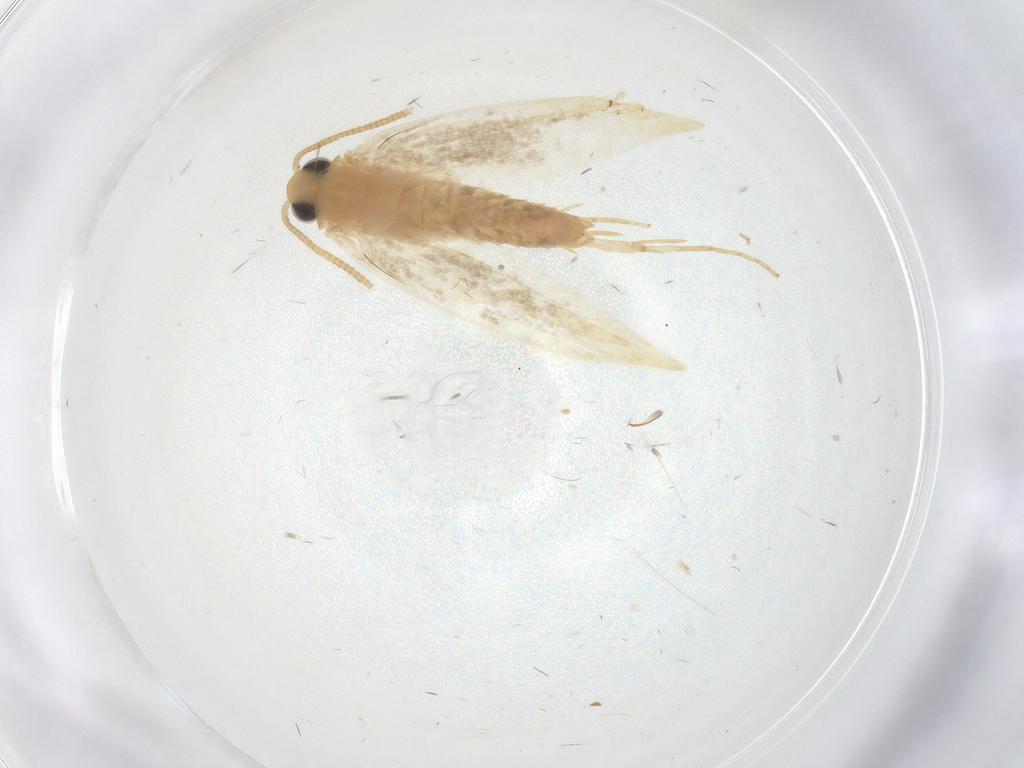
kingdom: Animalia
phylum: Arthropoda
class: Insecta
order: Lepidoptera
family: Nepticulidae
